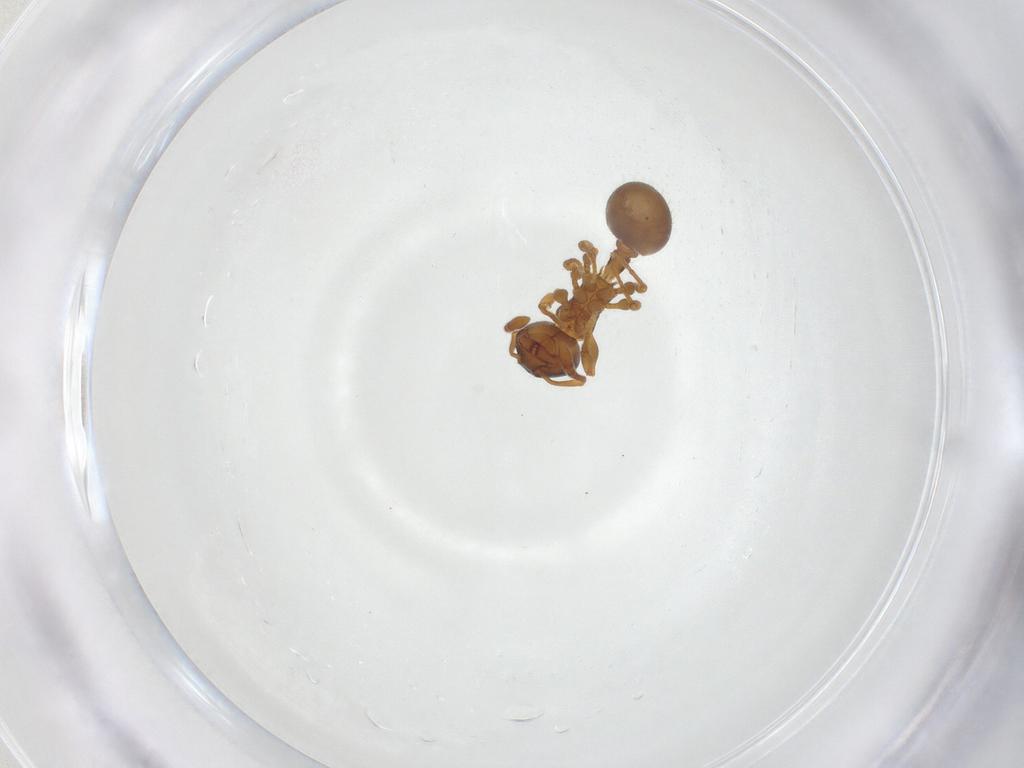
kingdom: Animalia
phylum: Arthropoda
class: Insecta
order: Hymenoptera
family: Formicidae
